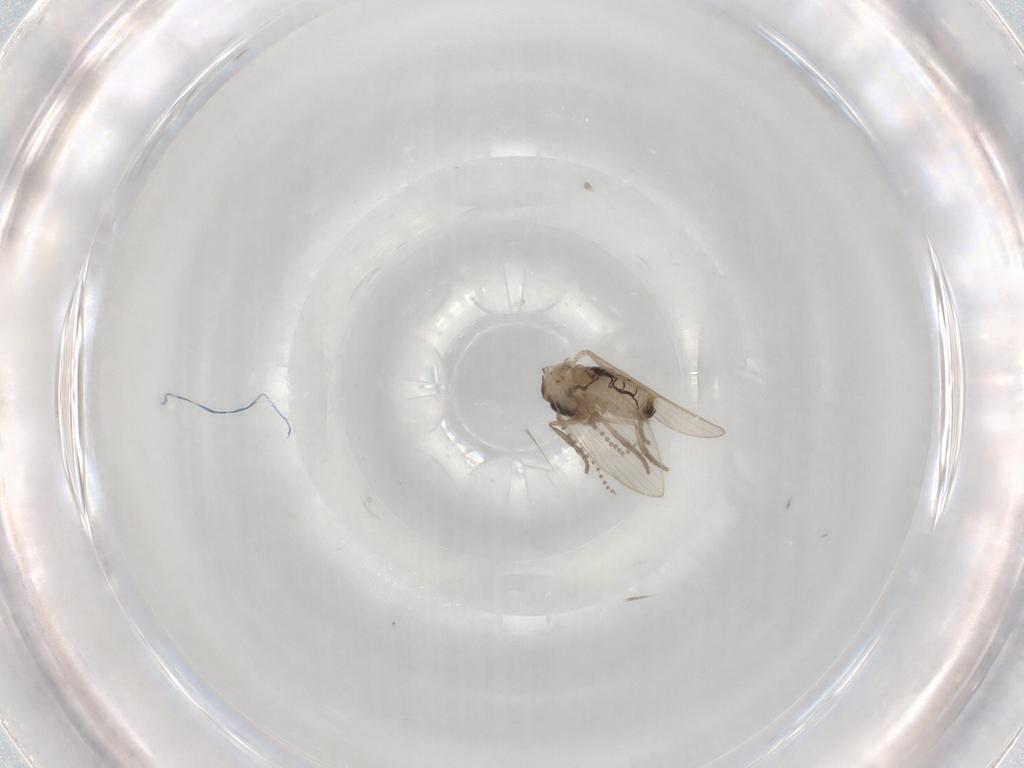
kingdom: Animalia
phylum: Arthropoda
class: Insecta
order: Diptera
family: Psychodidae
